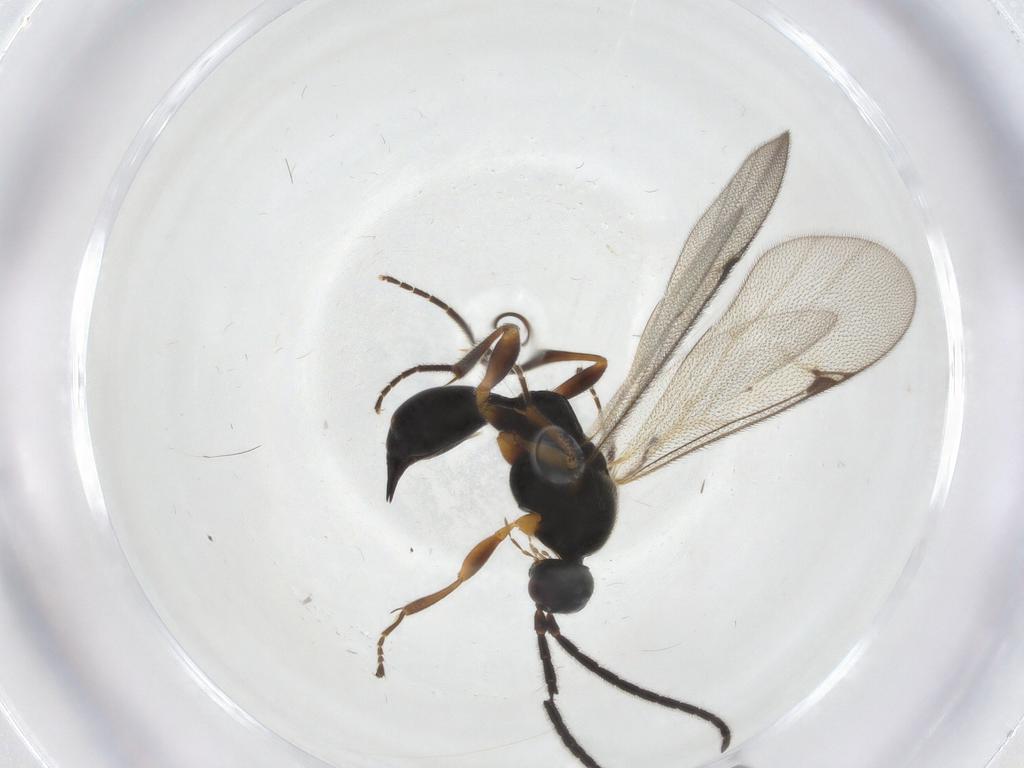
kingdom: Animalia
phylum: Arthropoda
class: Insecta
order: Hymenoptera
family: Proctotrupidae
